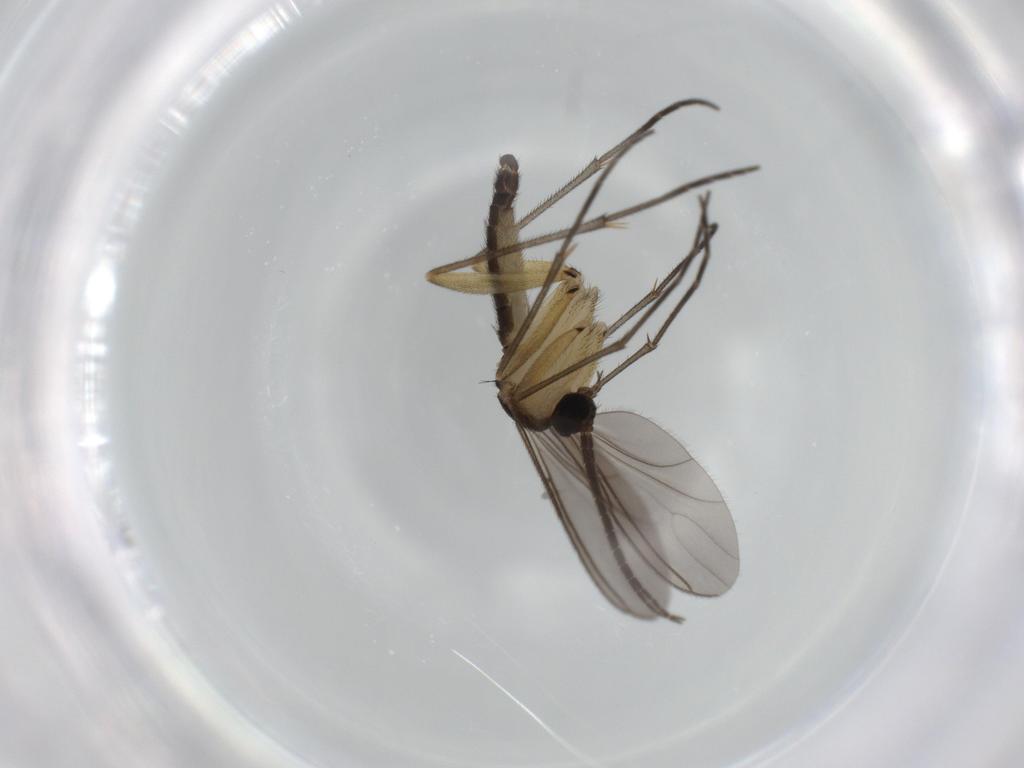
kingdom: Animalia
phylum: Arthropoda
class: Insecta
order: Diptera
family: Sciaridae
